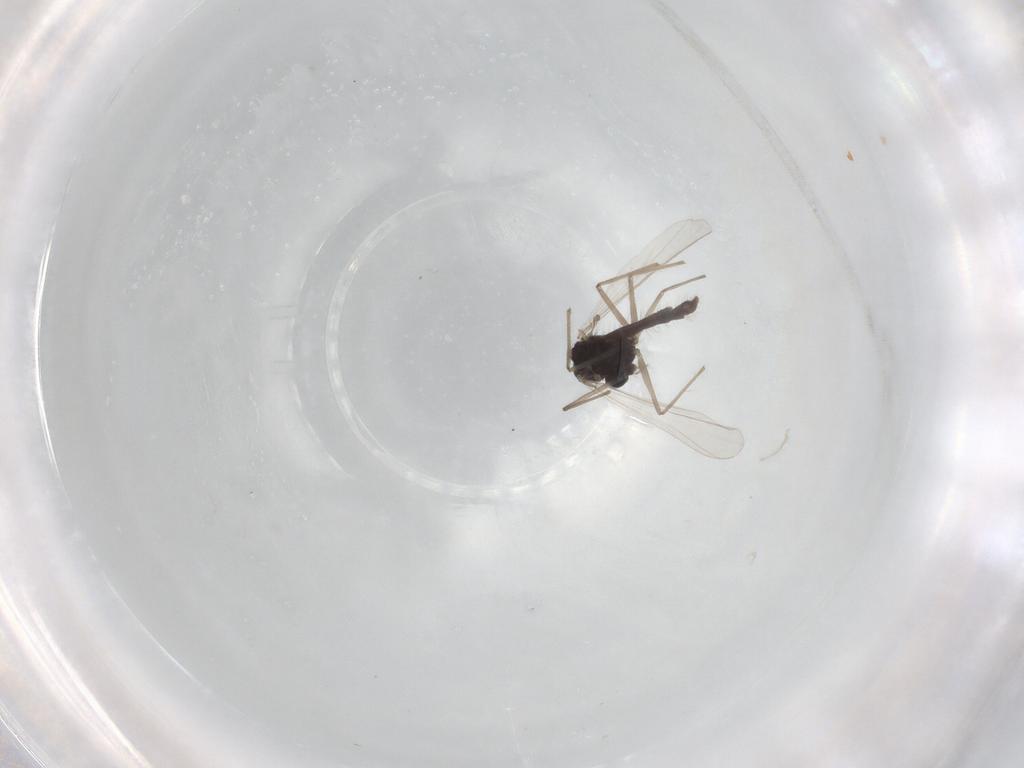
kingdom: Animalia
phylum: Arthropoda
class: Insecta
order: Diptera
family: Chironomidae
